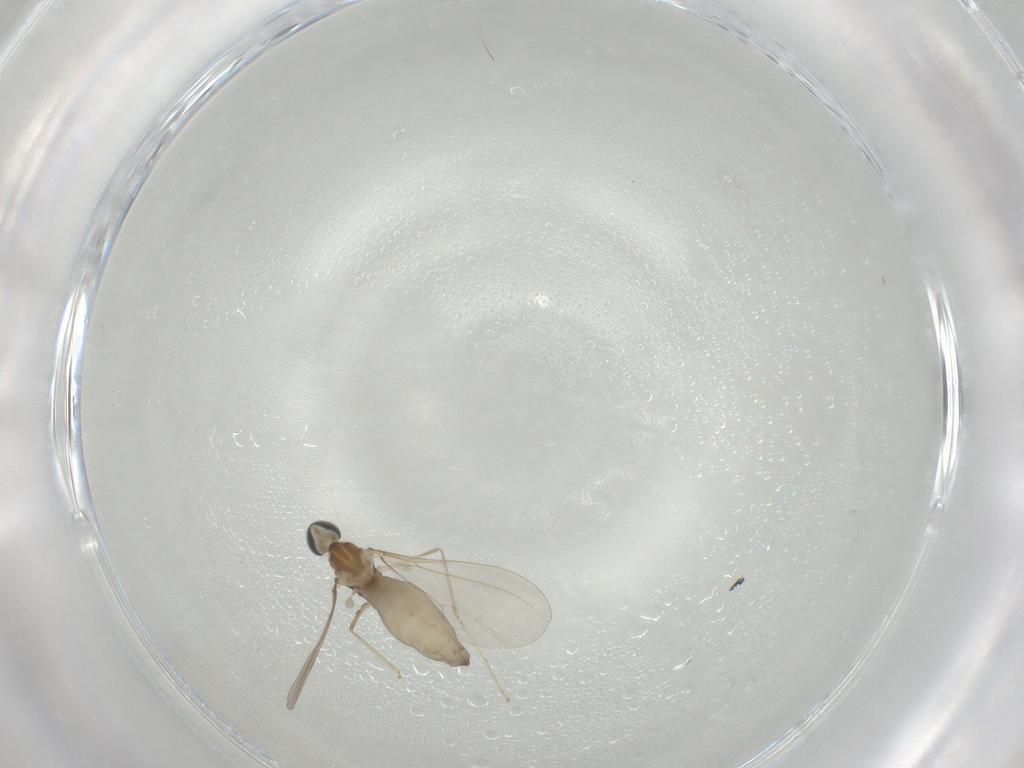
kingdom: Animalia
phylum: Arthropoda
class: Insecta
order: Diptera
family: Cecidomyiidae
